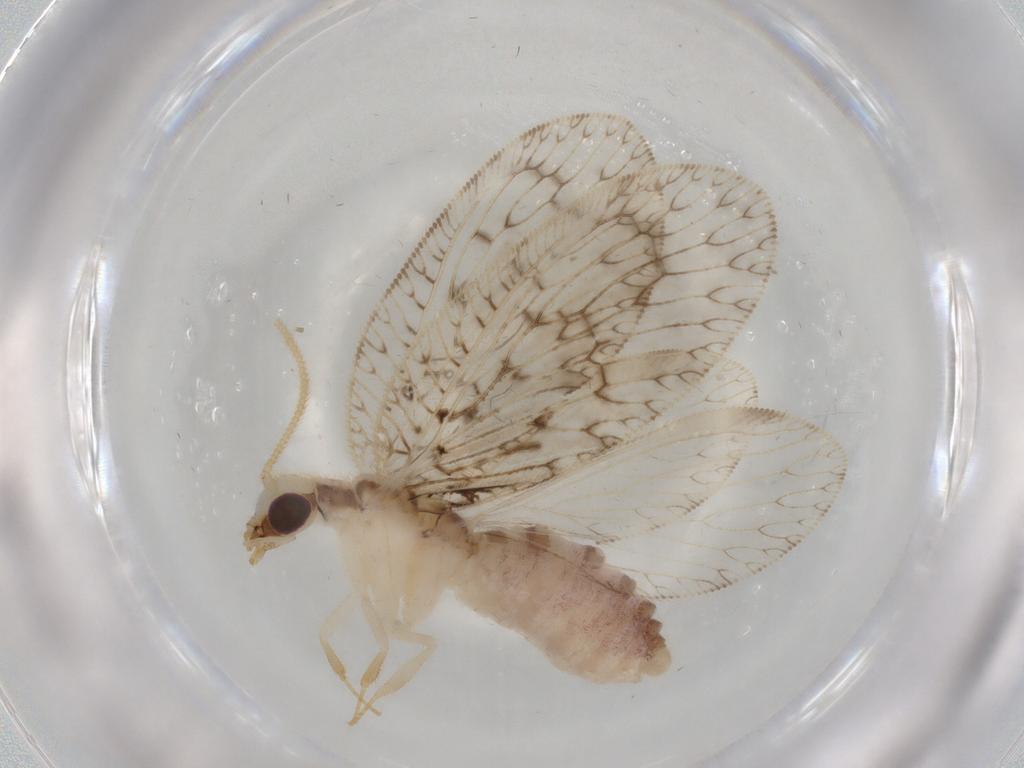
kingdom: Animalia
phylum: Arthropoda
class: Insecta
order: Neuroptera
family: Hemerobiidae
